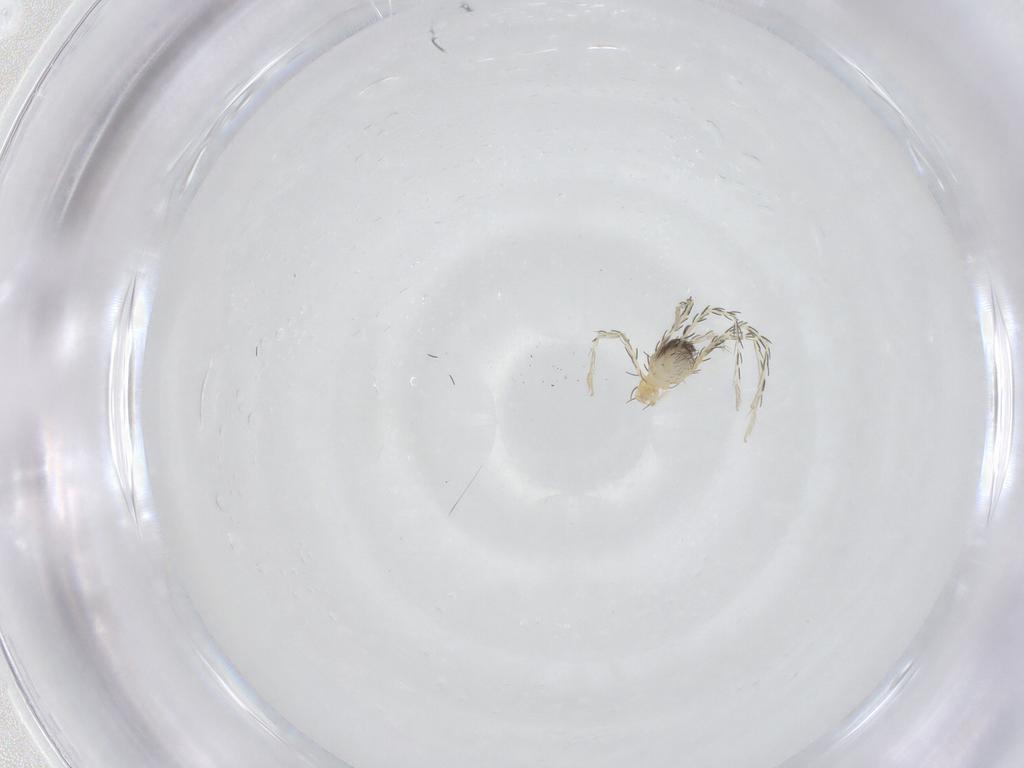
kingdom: Animalia
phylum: Arthropoda
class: Arachnida
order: Trombidiformes
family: Erythraeidae
